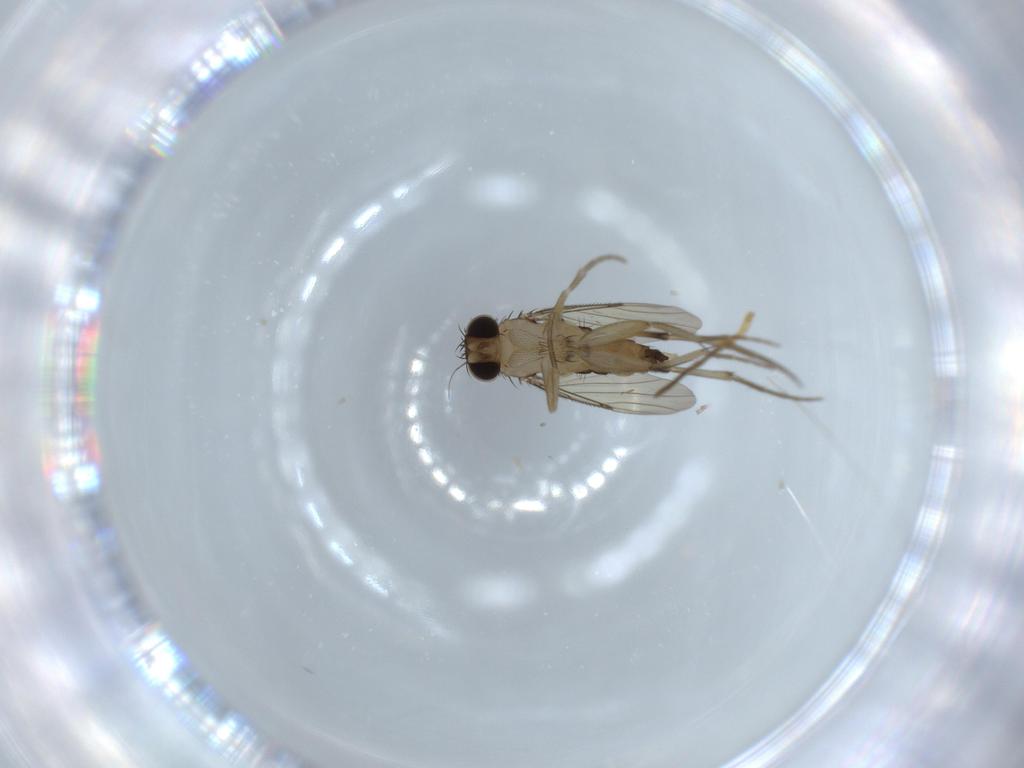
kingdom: Animalia
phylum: Arthropoda
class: Insecta
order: Diptera
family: Phoridae
